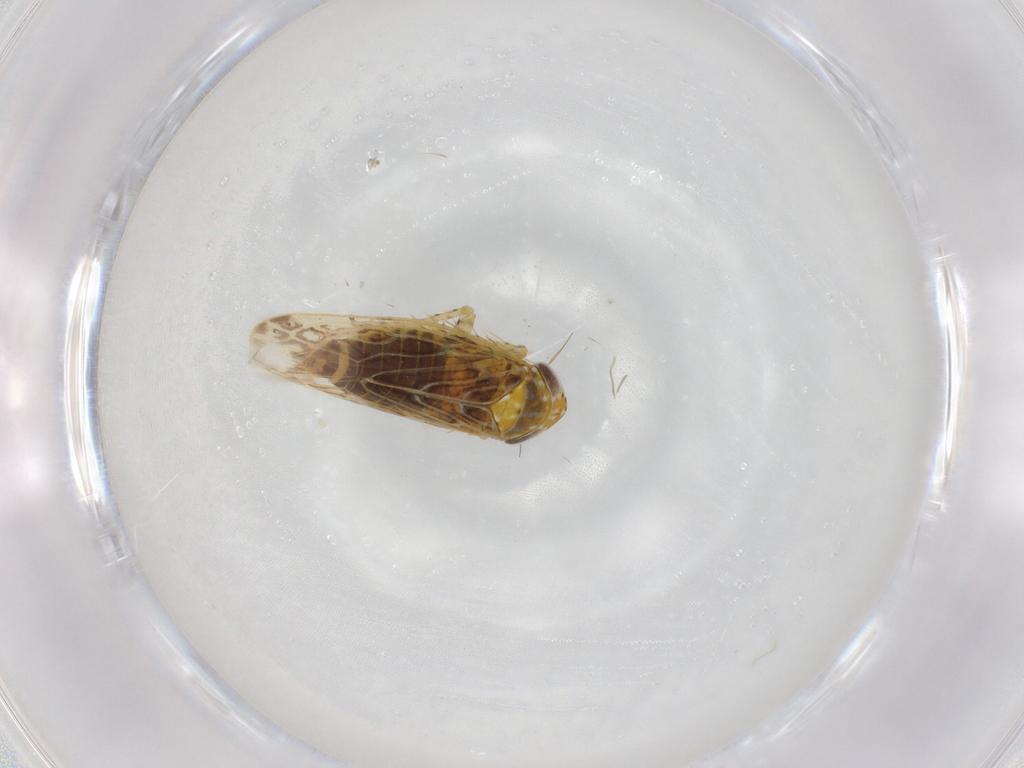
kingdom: Animalia
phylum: Arthropoda
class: Insecta
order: Hemiptera
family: Cicadellidae
